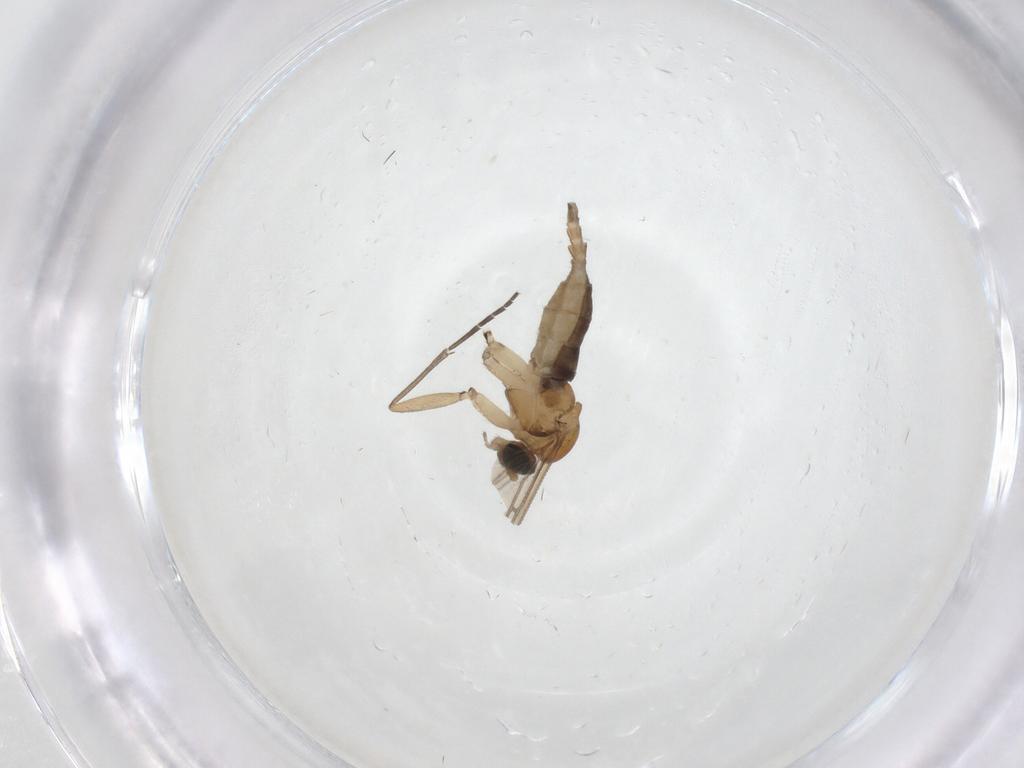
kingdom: Animalia
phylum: Arthropoda
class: Insecta
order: Diptera
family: Sciaridae
